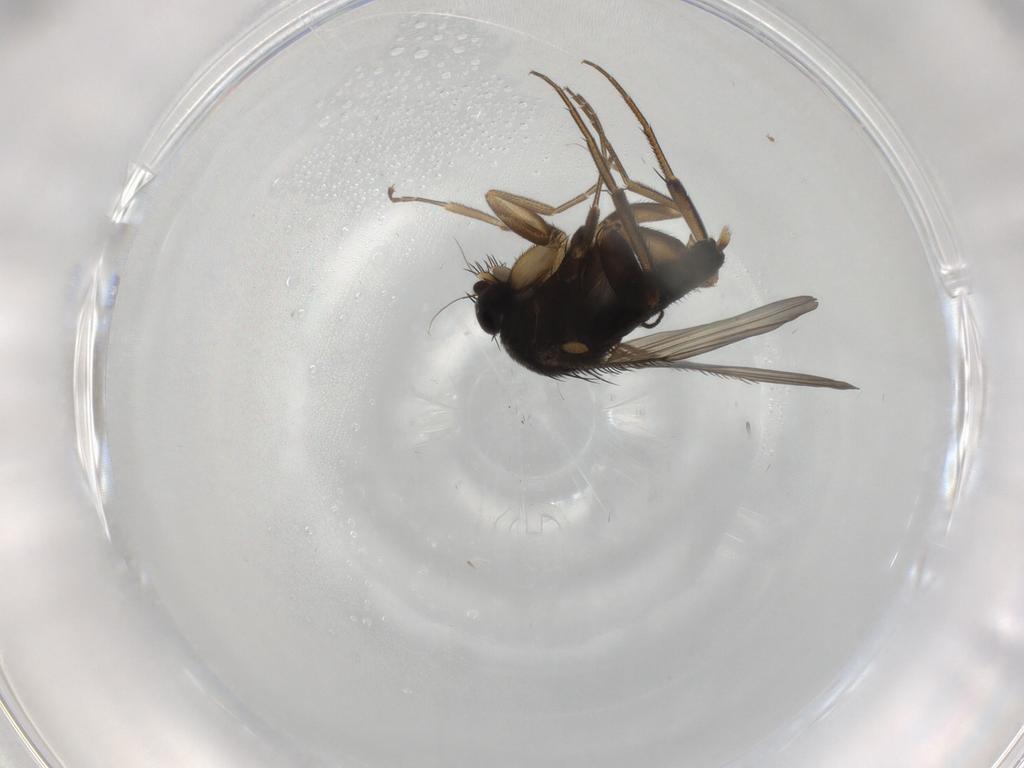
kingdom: Animalia
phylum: Arthropoda
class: Insecta
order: Diptera
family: Phoridae
